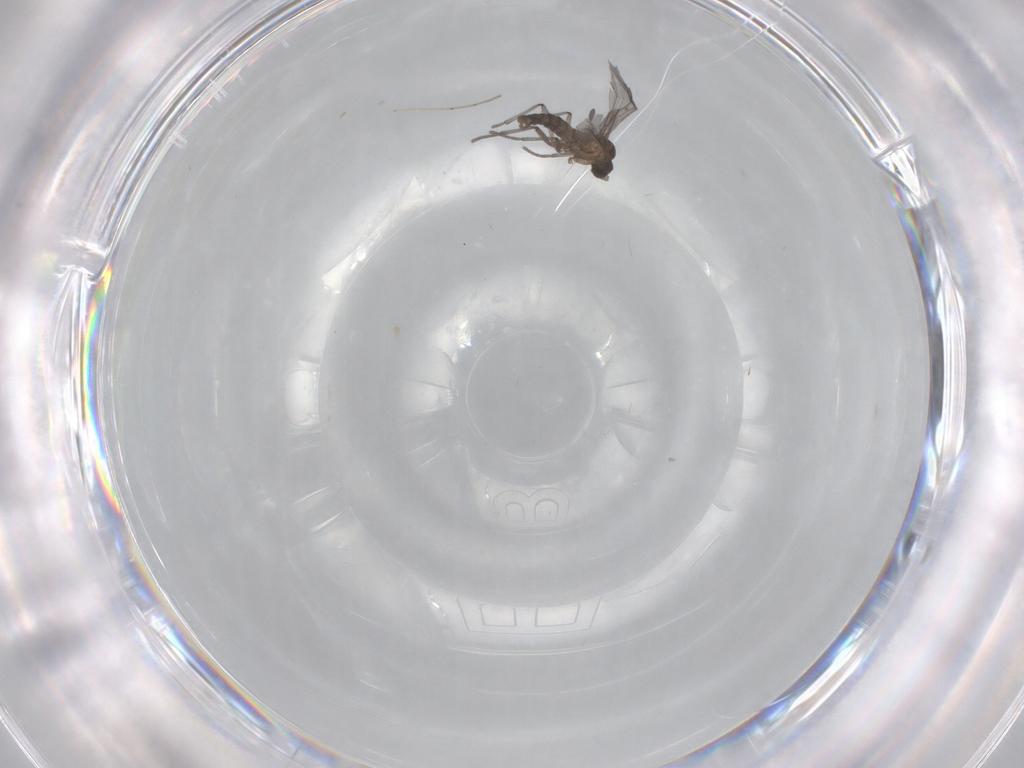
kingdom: Animalia
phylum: Arthropoda
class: Insecta
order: Diptera
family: Cecidomyiidae
